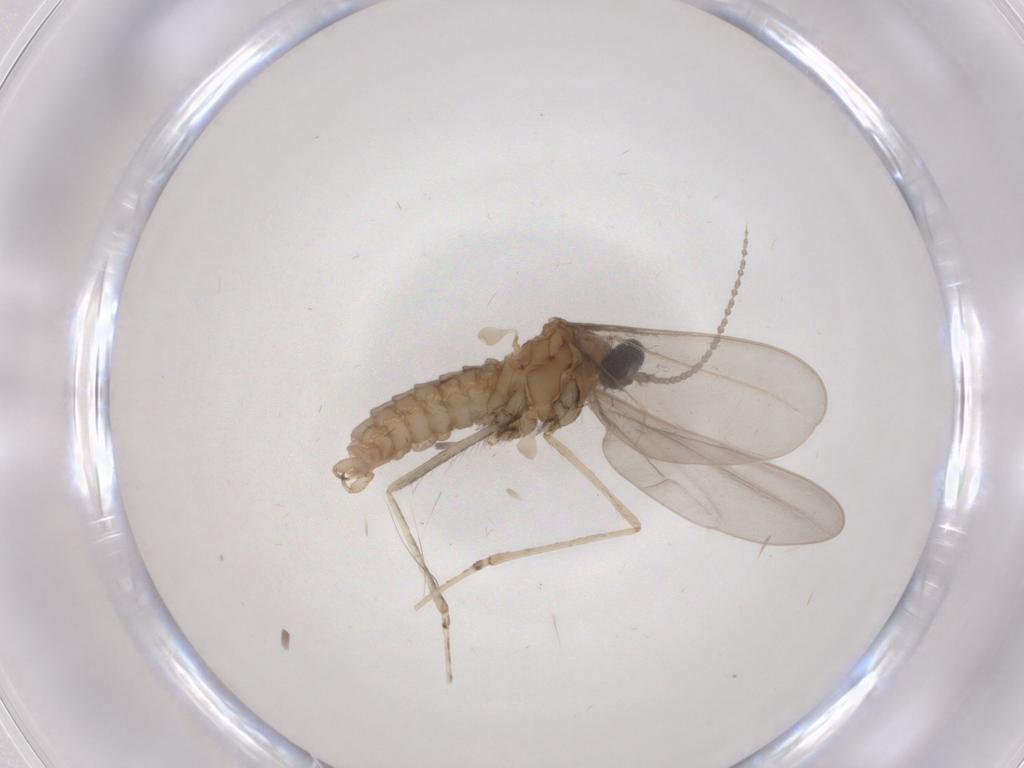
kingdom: Animalia
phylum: Arthropoda
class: Insecta
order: Diptera
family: Cecidomyiidae
